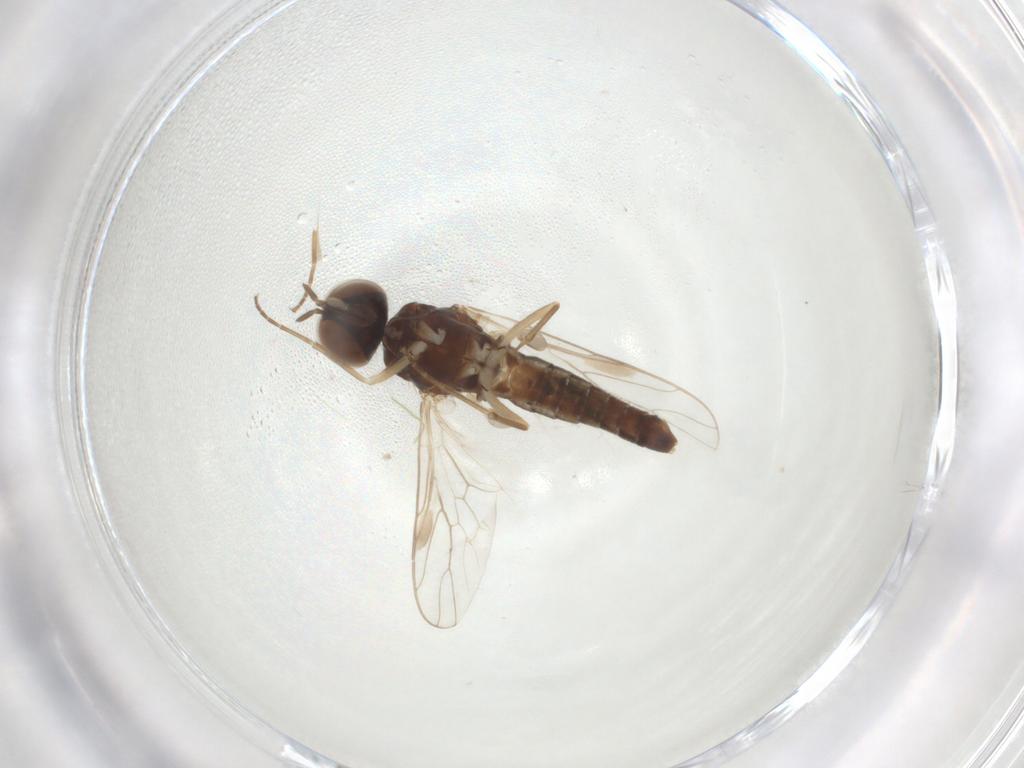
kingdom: Animalia
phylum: Arthropoda
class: Insecta
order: Diptera
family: Scenopinidae
